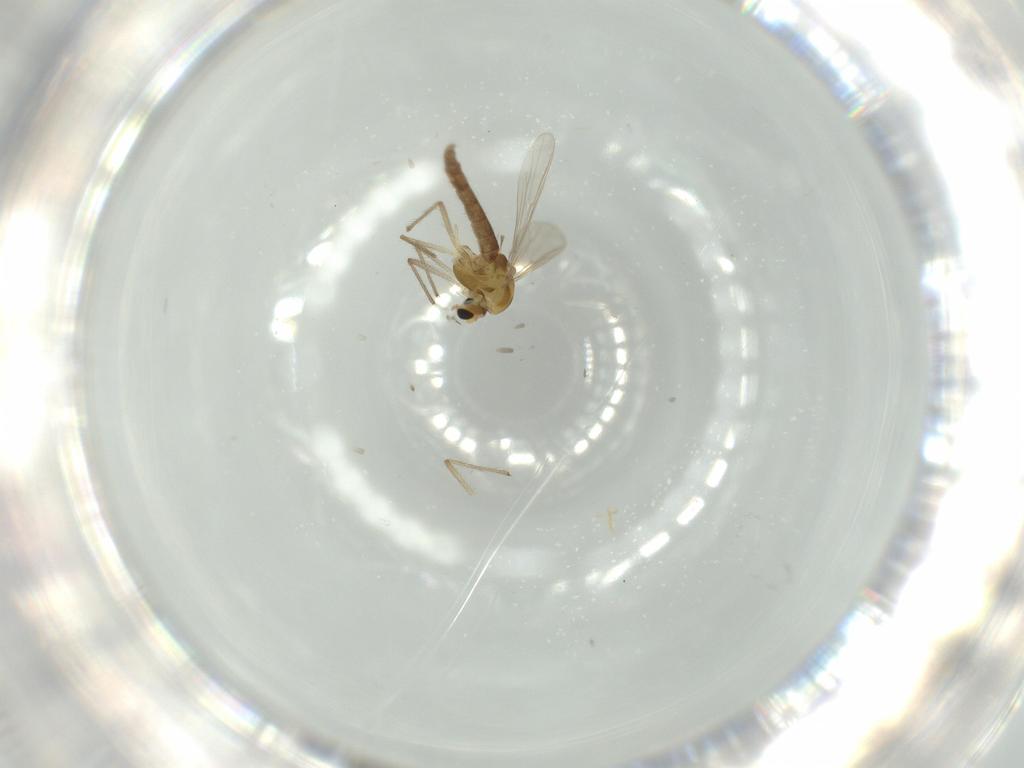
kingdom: Animalia
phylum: Arthropoda
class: Insecta
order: Diptera
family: Chironomidae
